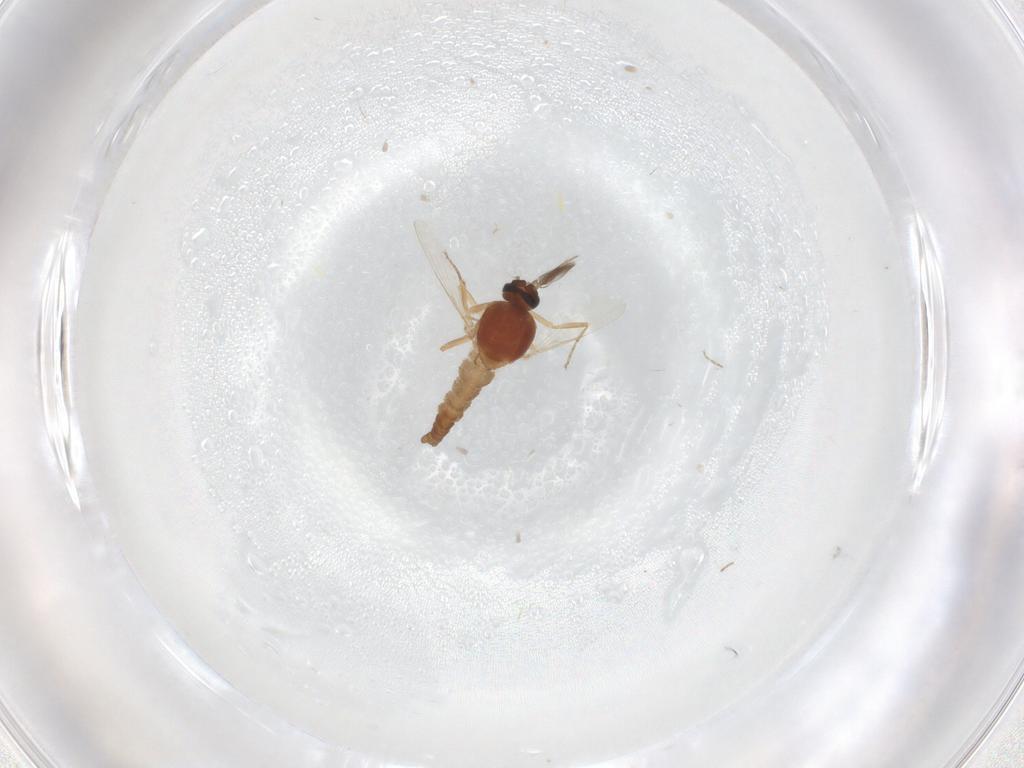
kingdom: Animalia
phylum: Arthropoda
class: Insecta
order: Diptera
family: Ceratopogonidae
